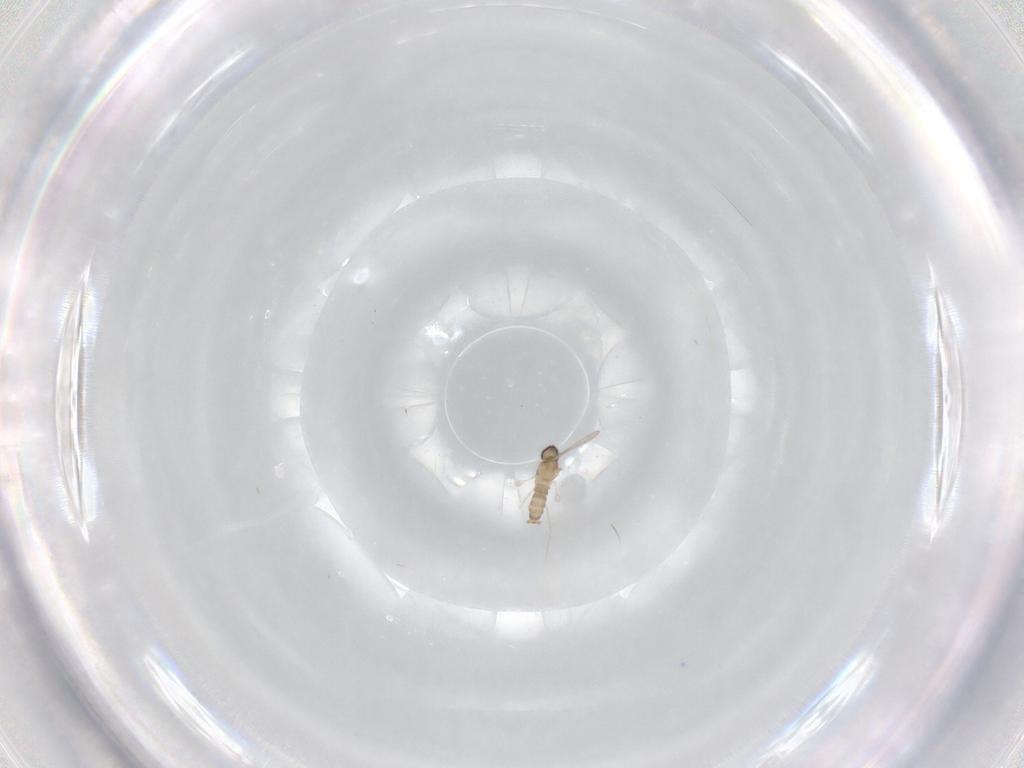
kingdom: Animalia
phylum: Arthropoda
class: Insecta
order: Diptera
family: Cecidomyiidae
